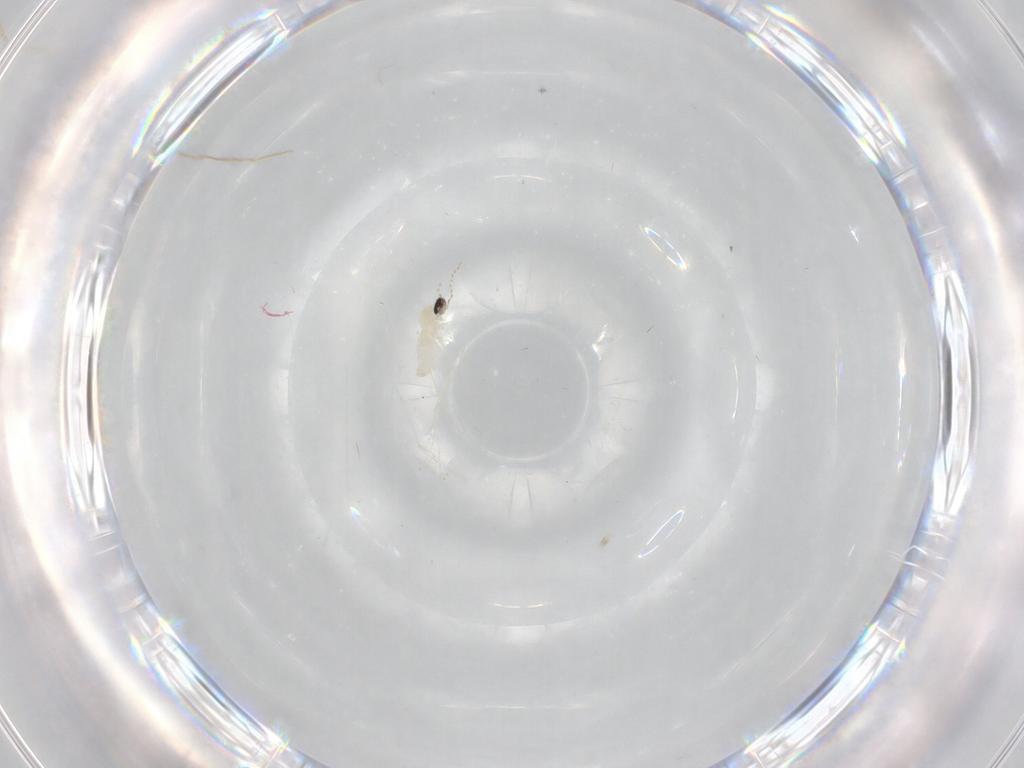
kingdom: Animalia
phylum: Arthropoda
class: Insecta
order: Diptera
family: Cecidomyiidae
